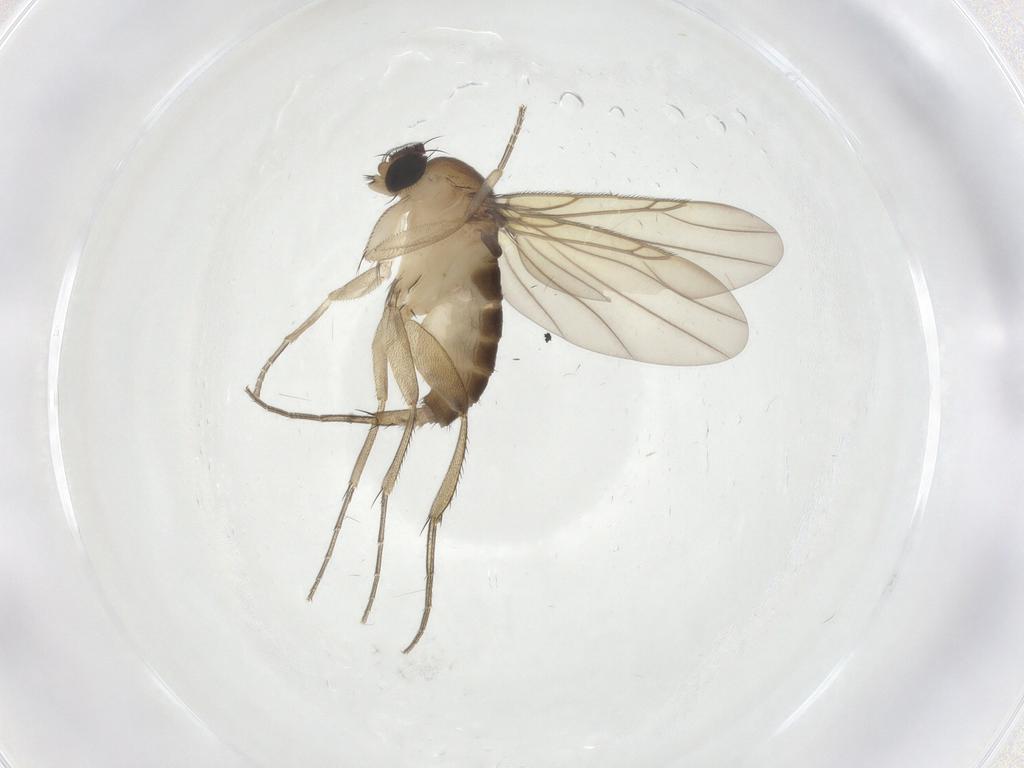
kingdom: Animalia
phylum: Arthropoda
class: Insecta
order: Diptera
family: Phoridae
